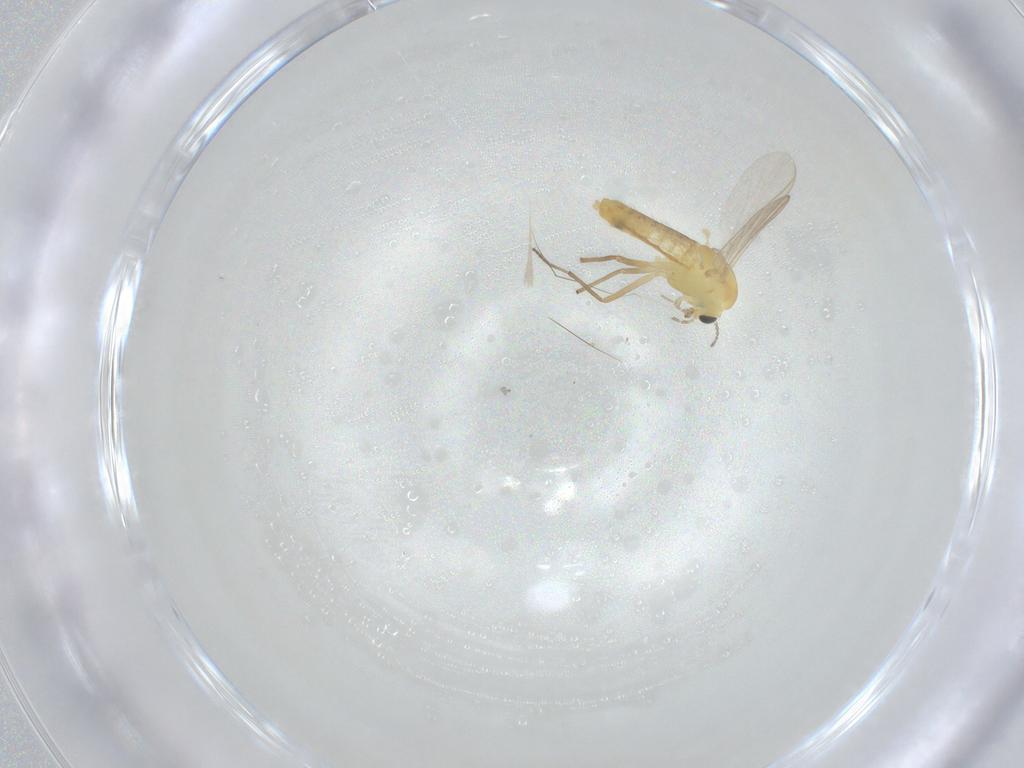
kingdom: Animalia
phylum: Arthropoda
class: Insecta
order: Diptera
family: Chironomidae
